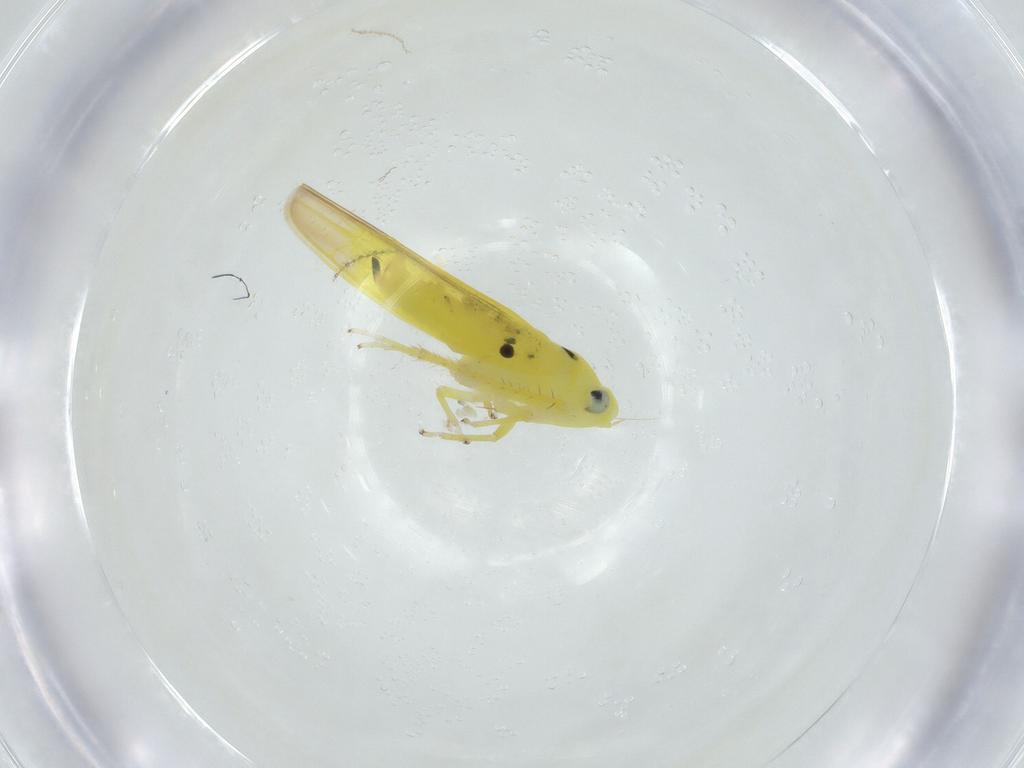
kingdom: Animalia
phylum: Arthropoda
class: Insecta
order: Hemiptera
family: Cicadellidae
